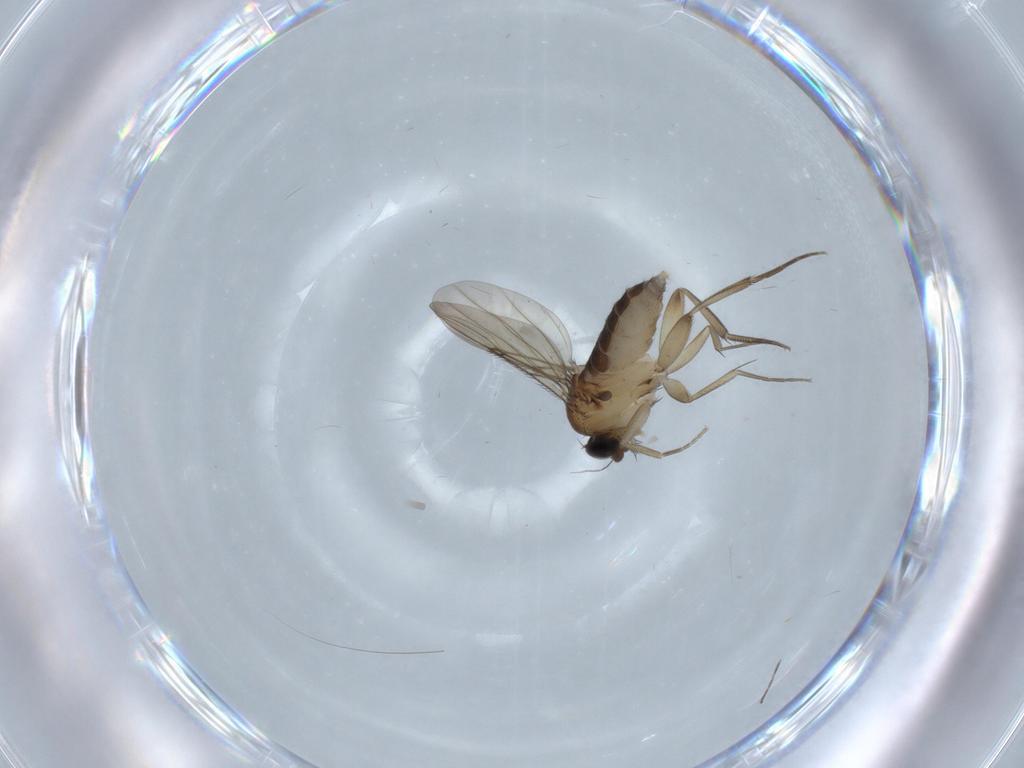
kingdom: Animalia
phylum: Arthropoda
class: Insecta
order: Diptera
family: Phoridae
